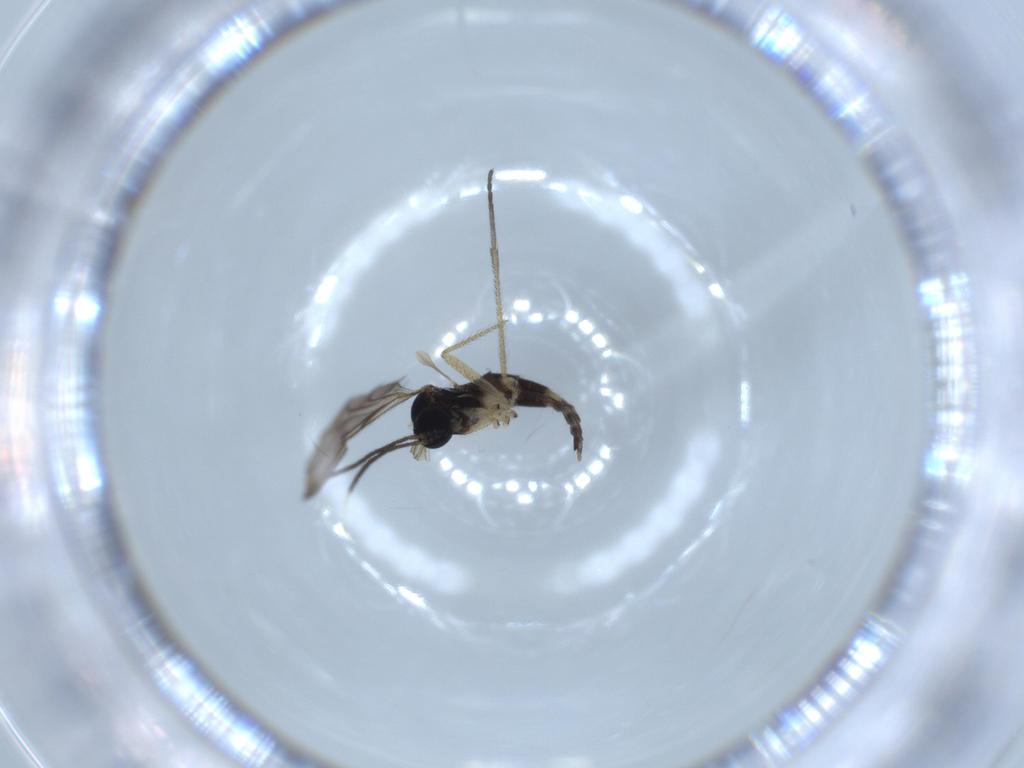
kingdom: Animalia
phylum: Arthropoda
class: Insecta
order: Diptera
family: Sciaridae
